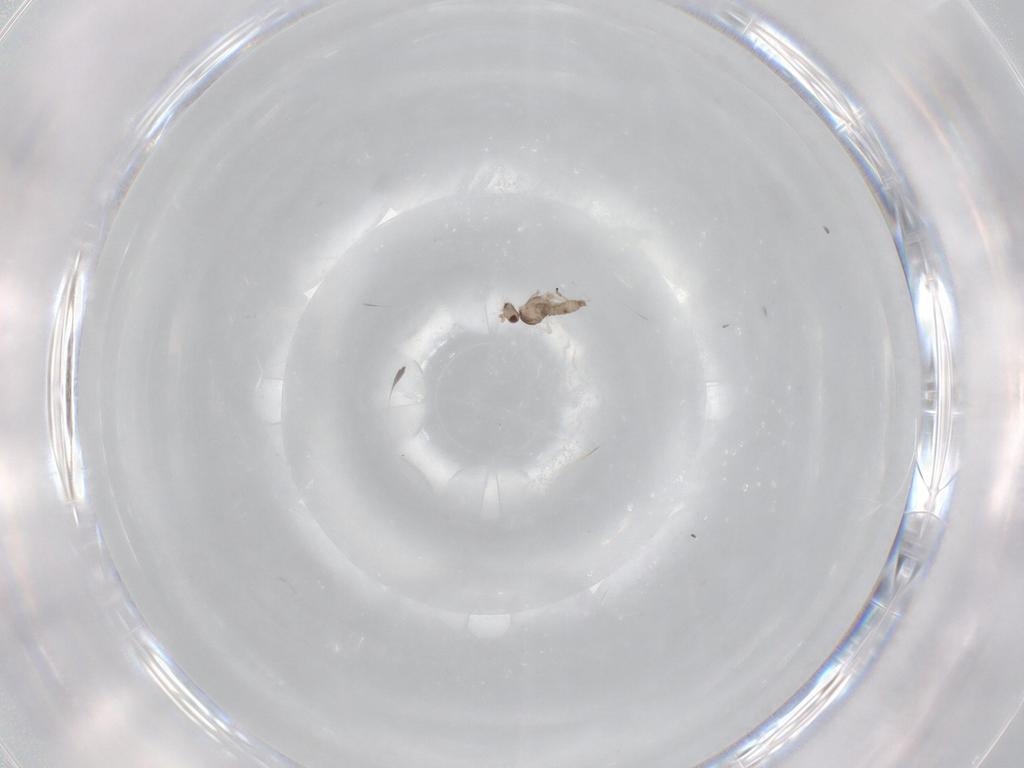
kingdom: Animalia
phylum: Arthropoda
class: Insecta
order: Diptera
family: Cecidomyiidae
